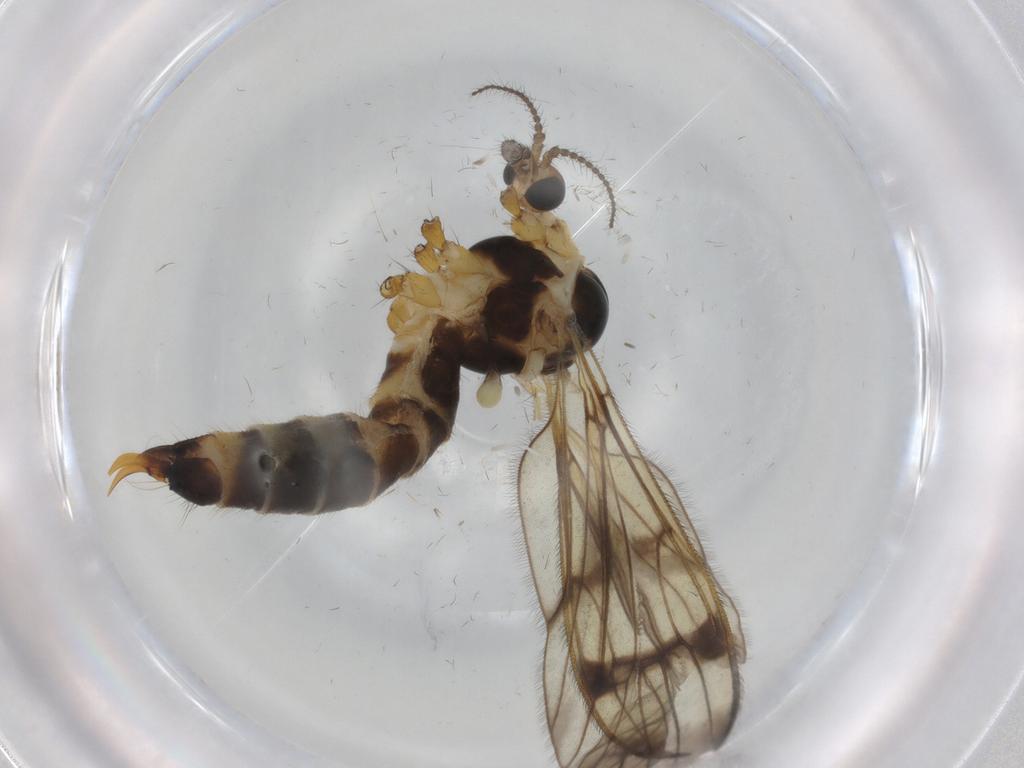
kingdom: Animalia
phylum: Arthropoda
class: Insecta
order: Diptera
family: Limoniidae
